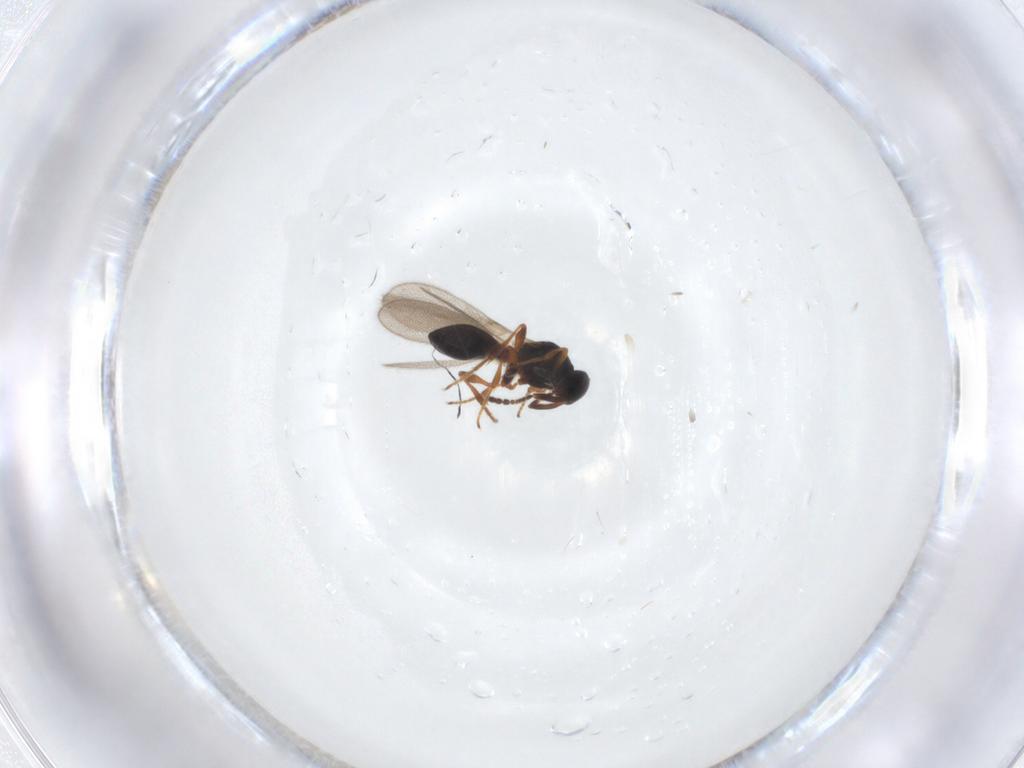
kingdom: Animalia
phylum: Arthropoda
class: Insecta
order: Hymenoptera
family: Platygastridae
